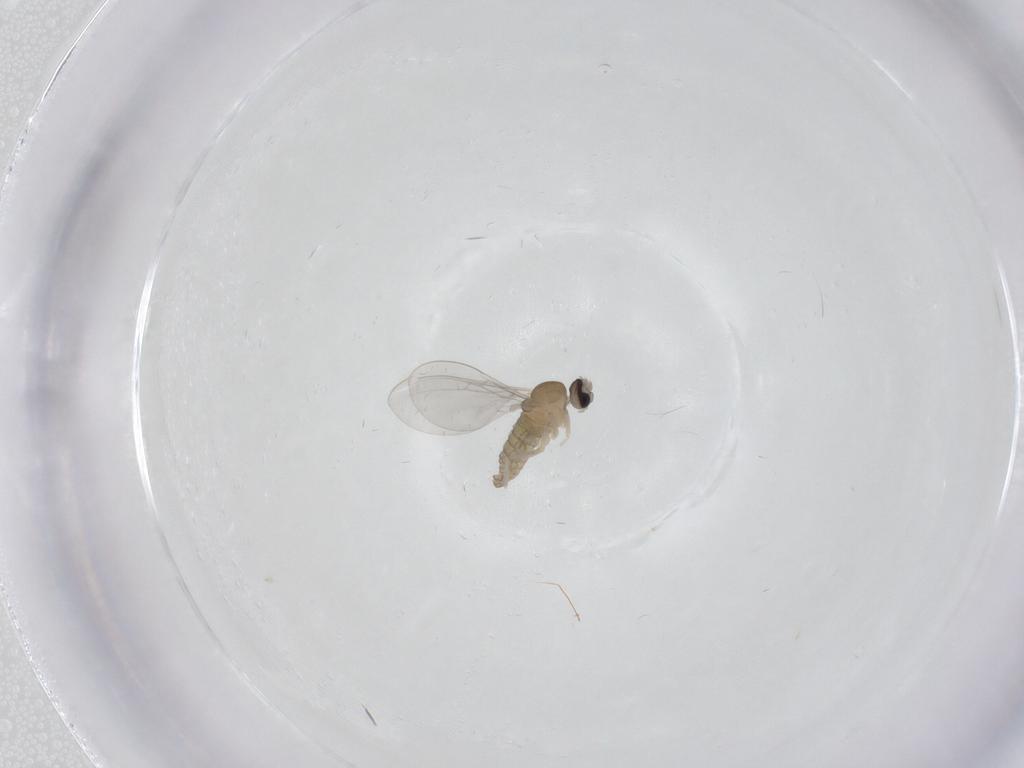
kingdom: Animalia
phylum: Arthropoda
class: Insecta
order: Diptera
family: Cecidomyiidae
